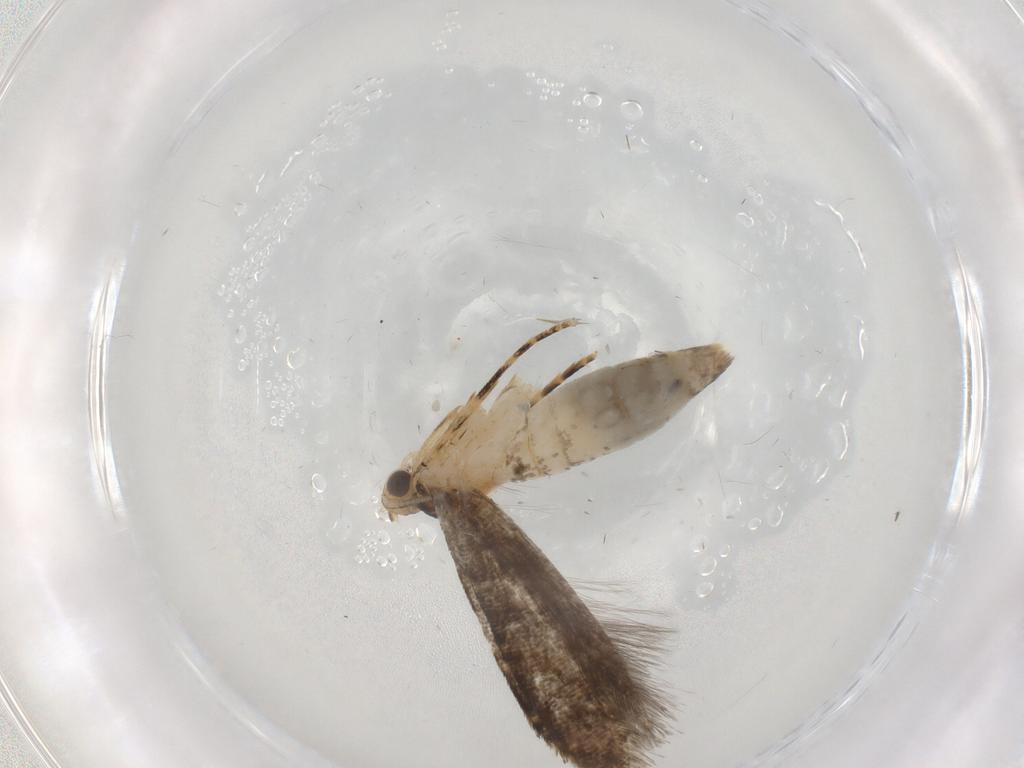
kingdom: Animalia
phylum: Arthropoda
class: Insecta
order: Lepidoptera
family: Tineidae
